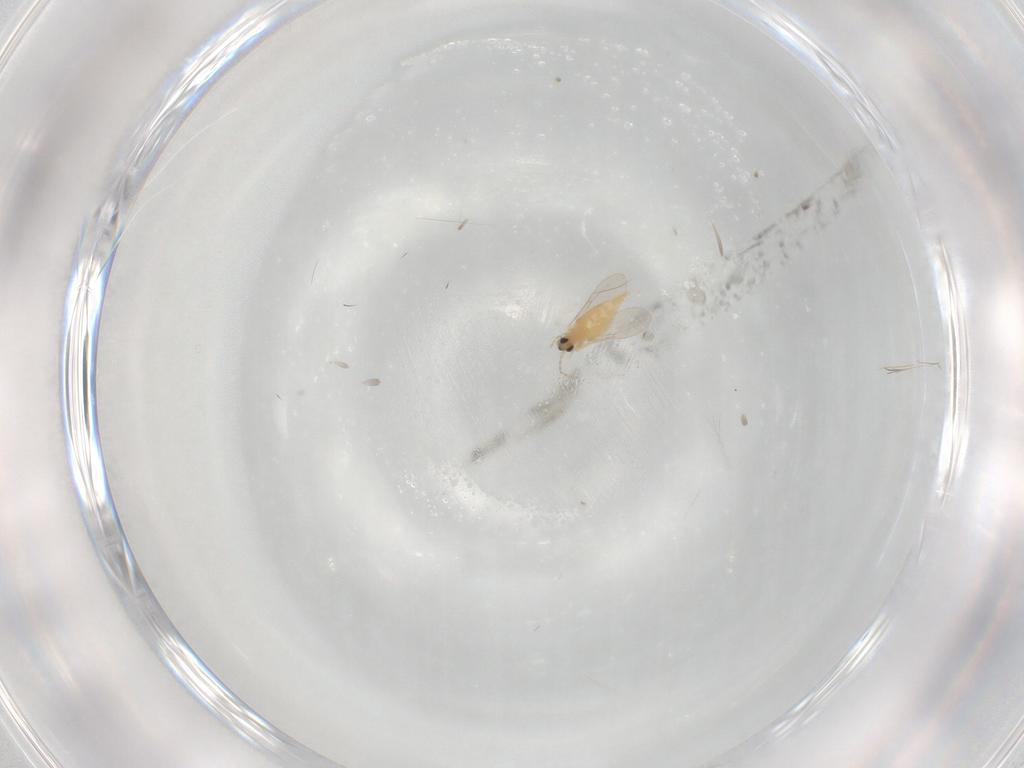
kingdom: Animalia
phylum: Arthropoda
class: Insecta
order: Diptera
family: Cecidomyiidae
